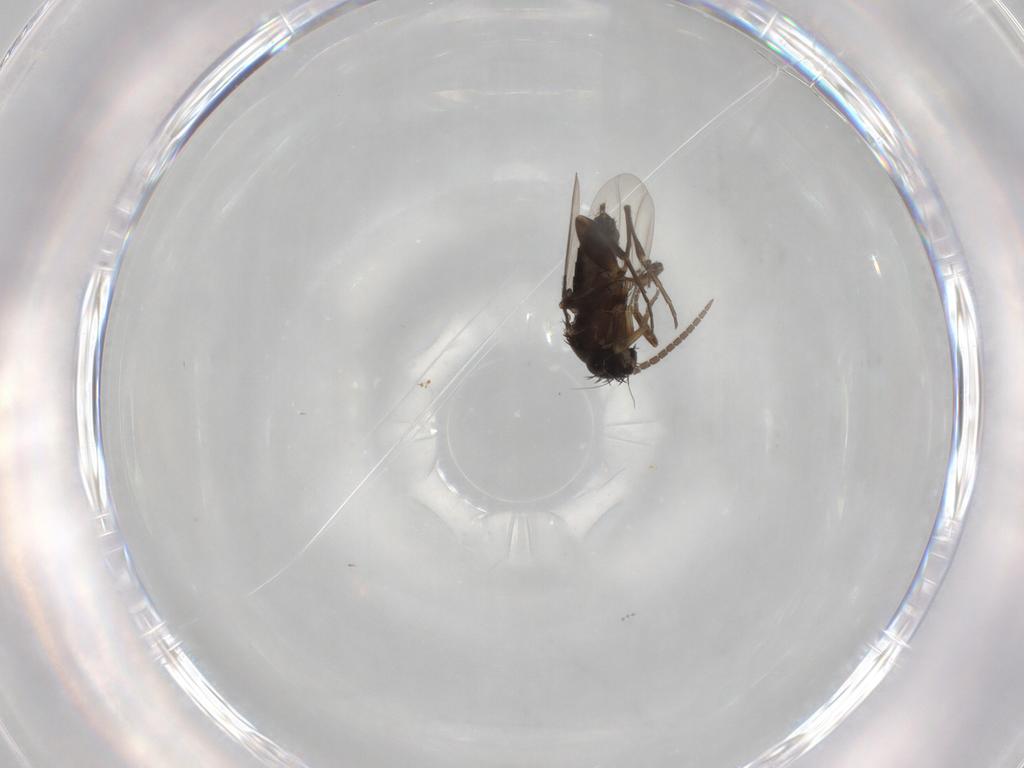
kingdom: Animalia
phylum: Arthropoda
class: Insecta
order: Diptera
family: Phoridae
